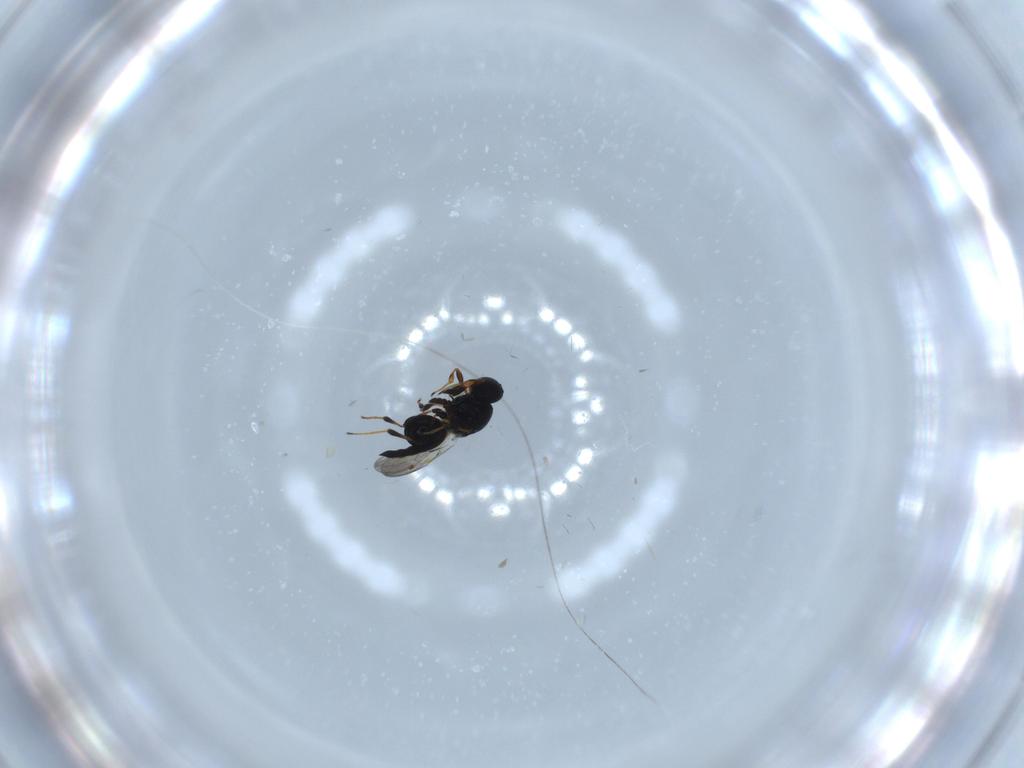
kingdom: Animalia
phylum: Arthropoda
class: Insecta
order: Hymenoptera
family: Platygastridae
